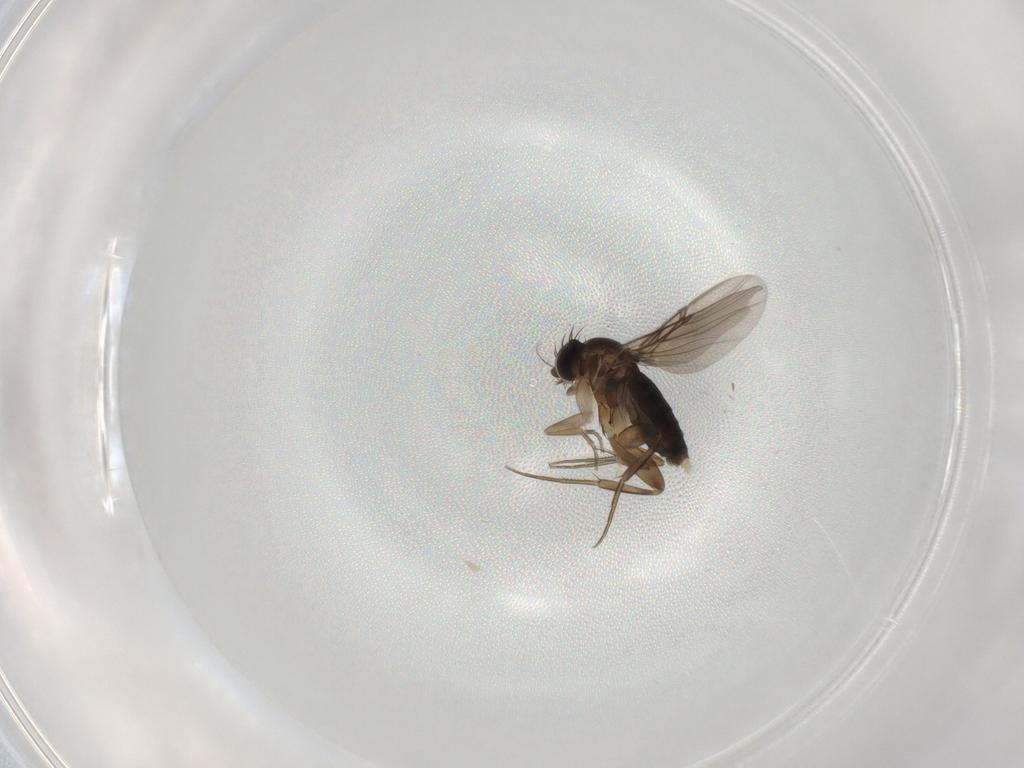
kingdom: Animalia
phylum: Arthropoda
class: Insecta
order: Diptera
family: Phoridae
